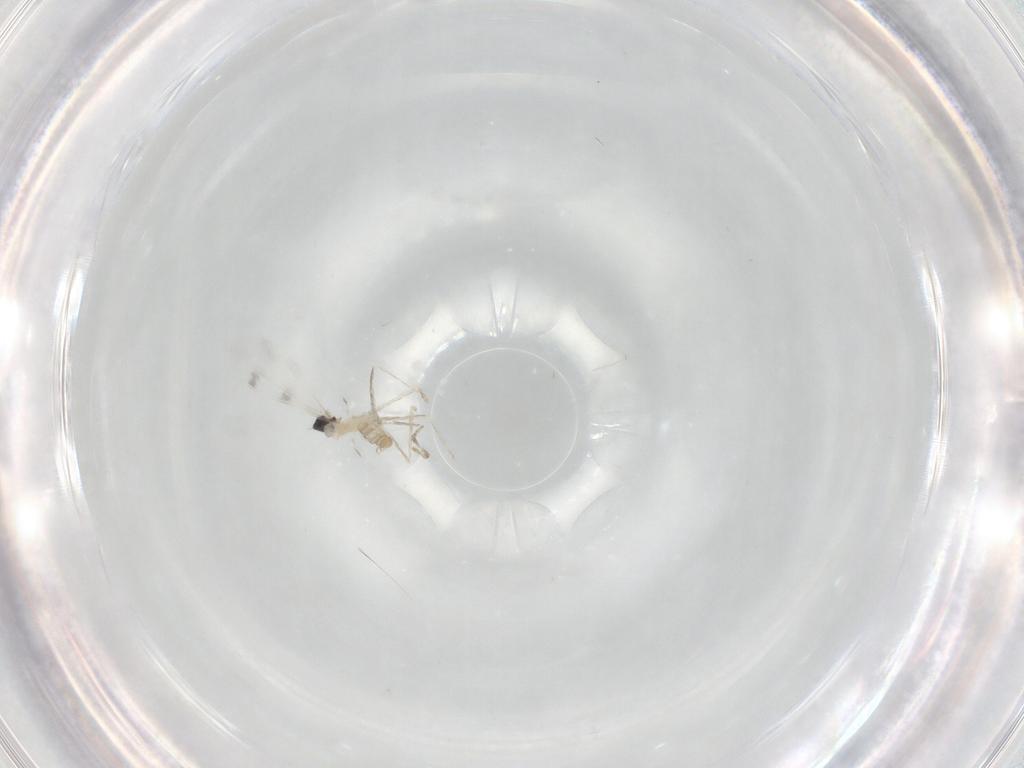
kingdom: Animalia
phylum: Arthropoda
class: Insecta
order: Diptera
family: Cecidomyiidae
